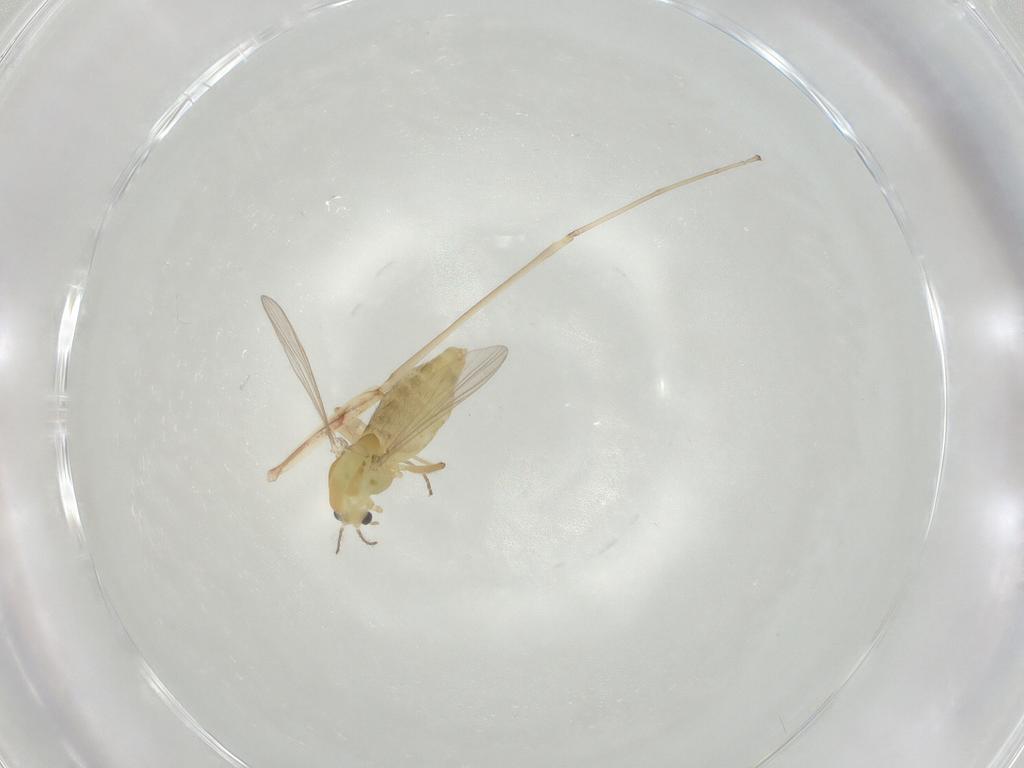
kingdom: Animalia
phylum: Arthropoda
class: Insecta
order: Diptera
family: Chironomidae
